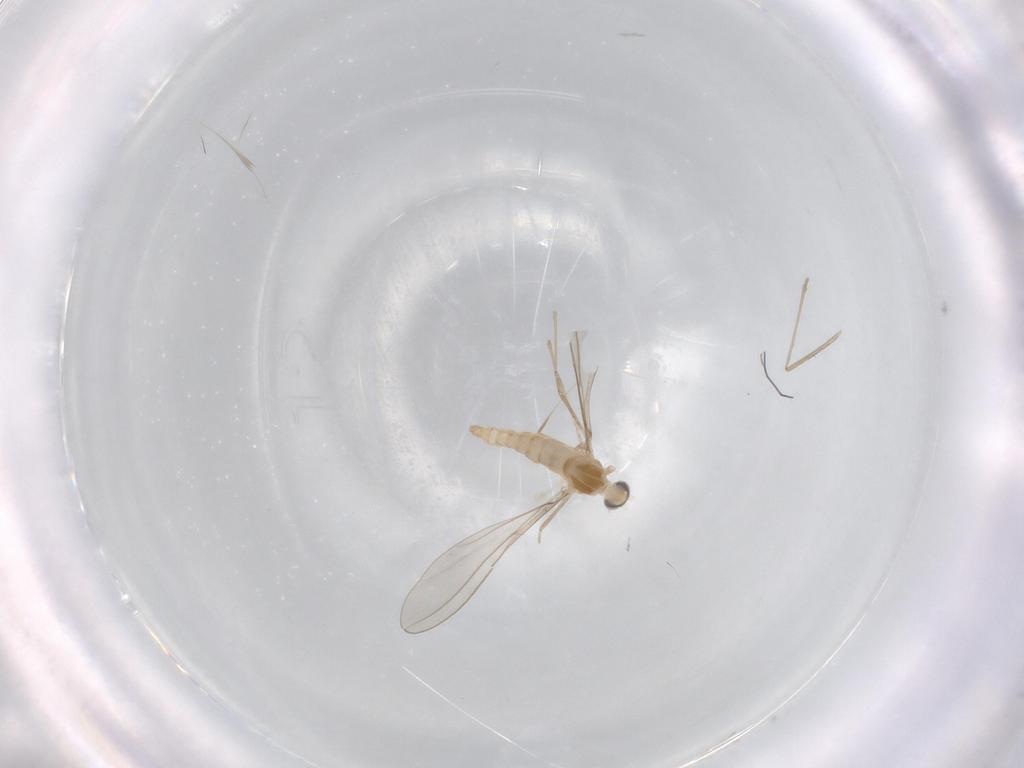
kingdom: Animalia
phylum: Arthropoda
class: Insecta
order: Diptera
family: Cecidomyiidae
